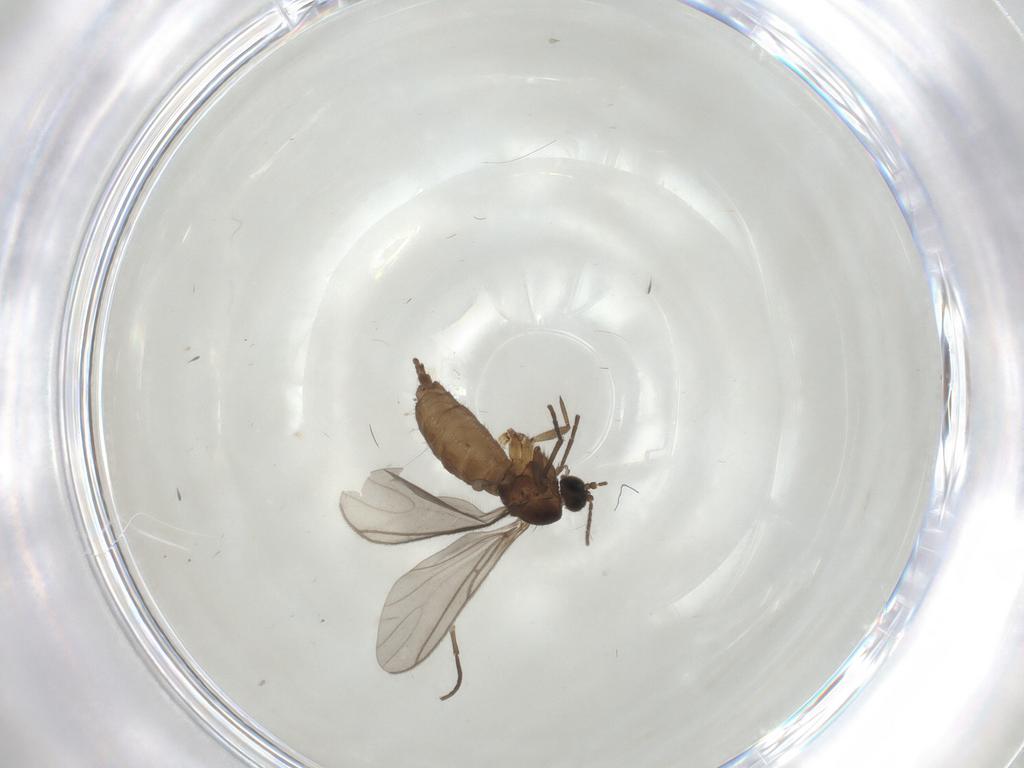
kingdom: Animalia
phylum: Arthropoda
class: Insecta
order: Diptera
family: Sciaridae
